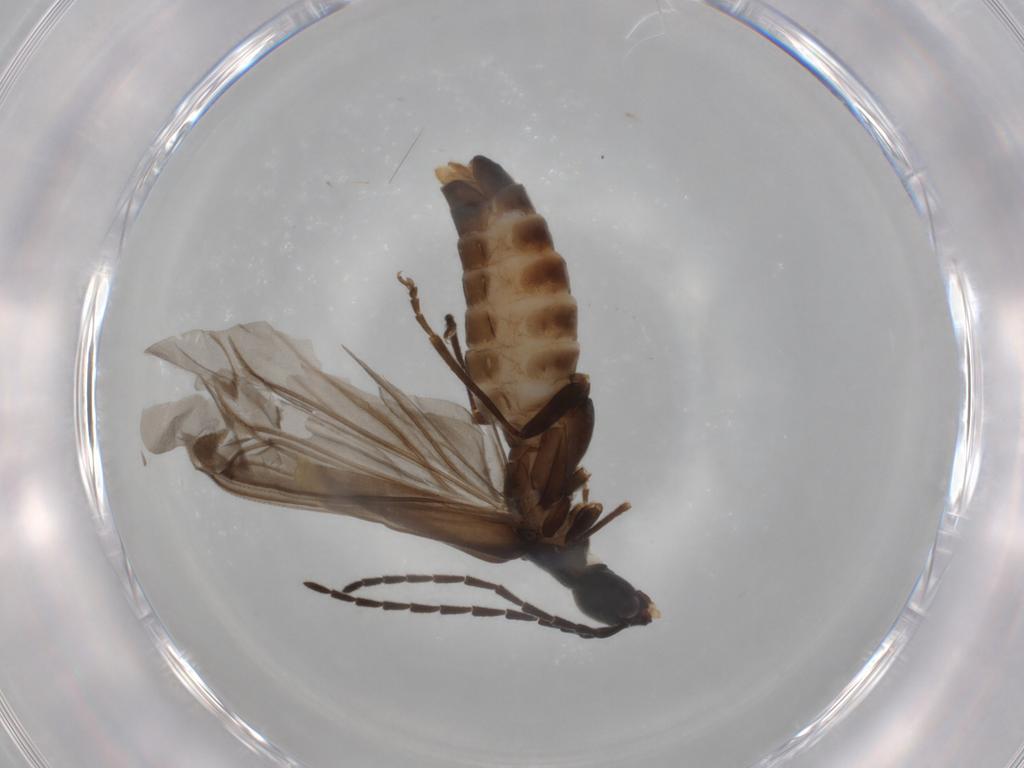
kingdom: Animalia
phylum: Arthropoda
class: Insecta
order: Coleoptera
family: Cantharidae
